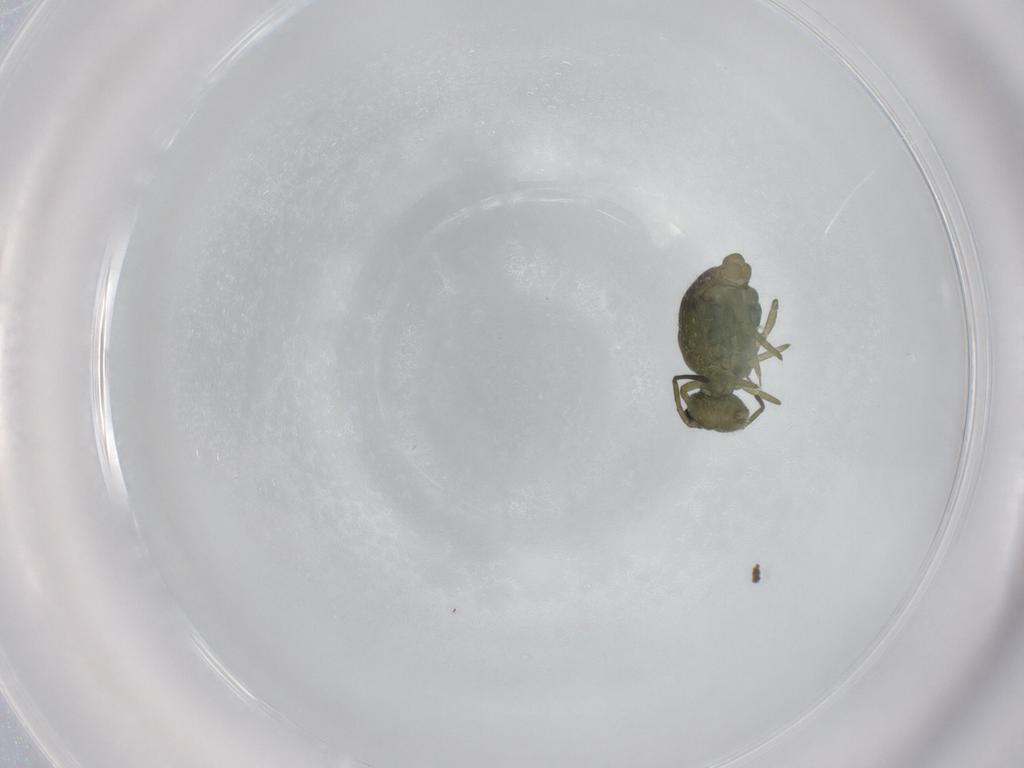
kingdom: Animalia
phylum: Arthropoda
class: Collembola
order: Symphypleona
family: Sminthuridae
